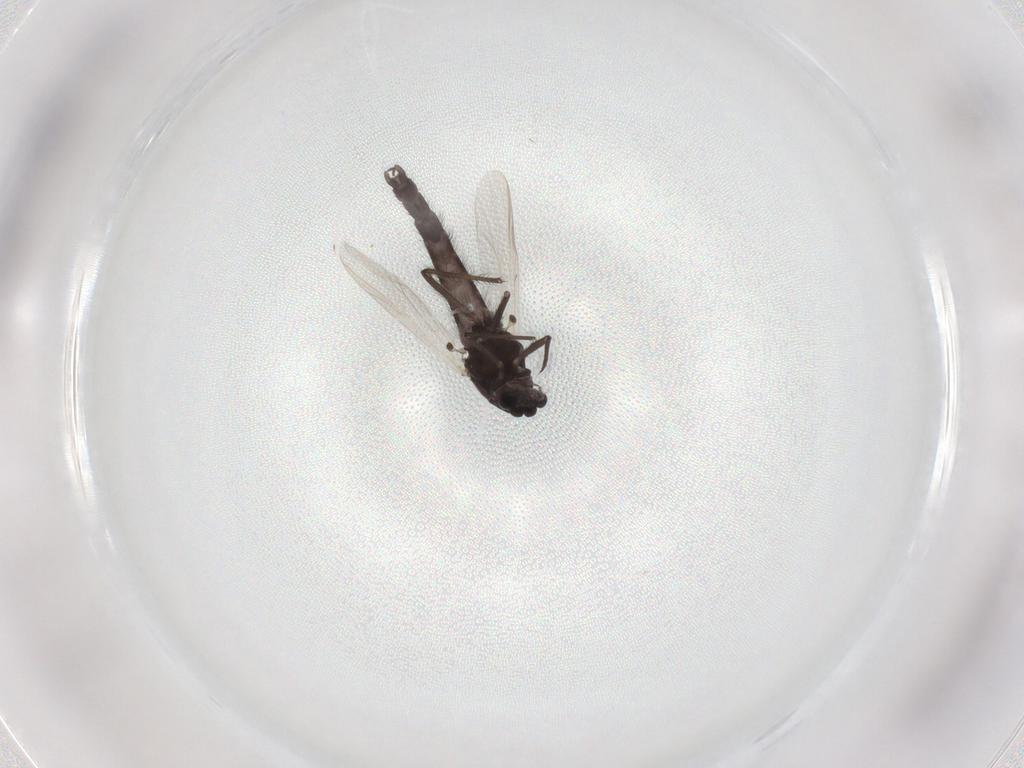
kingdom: Animalia
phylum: Arthropoda
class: Insecta
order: Diptera
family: Chironomidae
